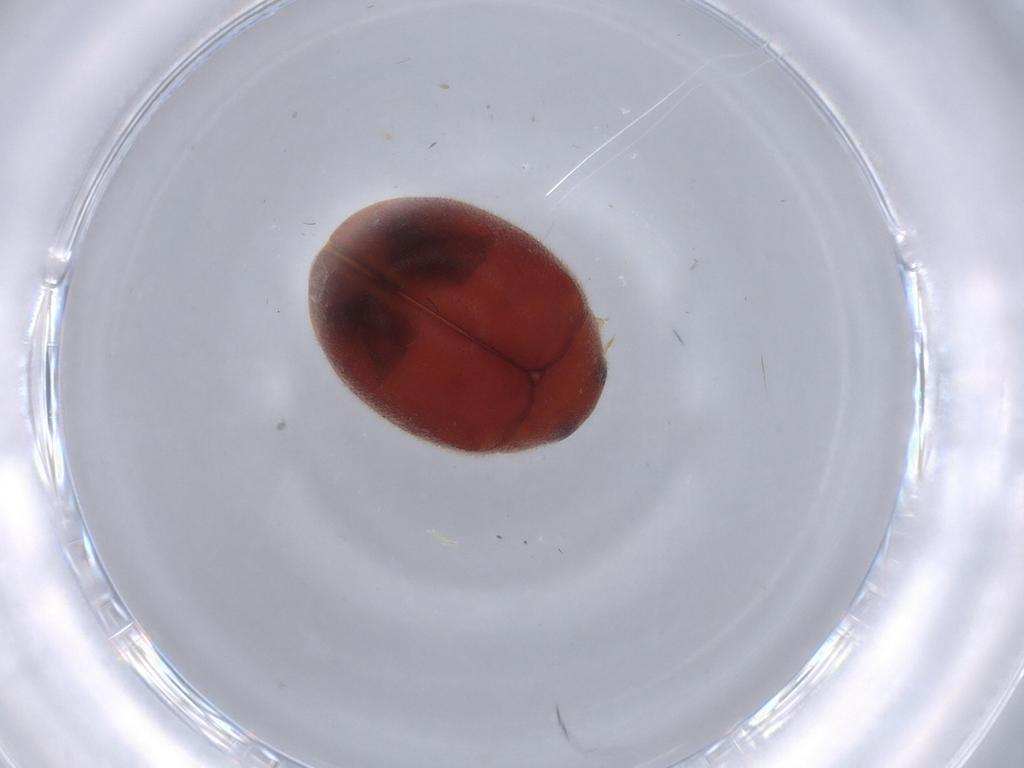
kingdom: Animalia
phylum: Arthropoda
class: Insecta
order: Coleoptera
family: Coccinellidae
